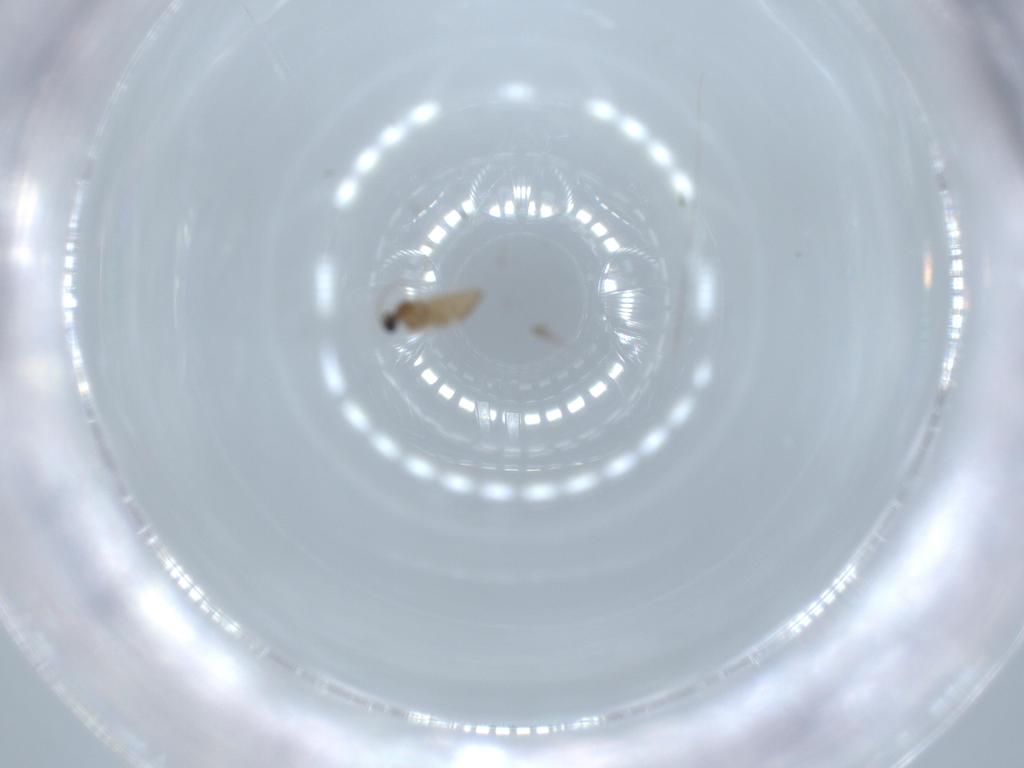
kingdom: Animalia
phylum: Arthropoda
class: Insecta
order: Diptera
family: Cecidomyiidae
